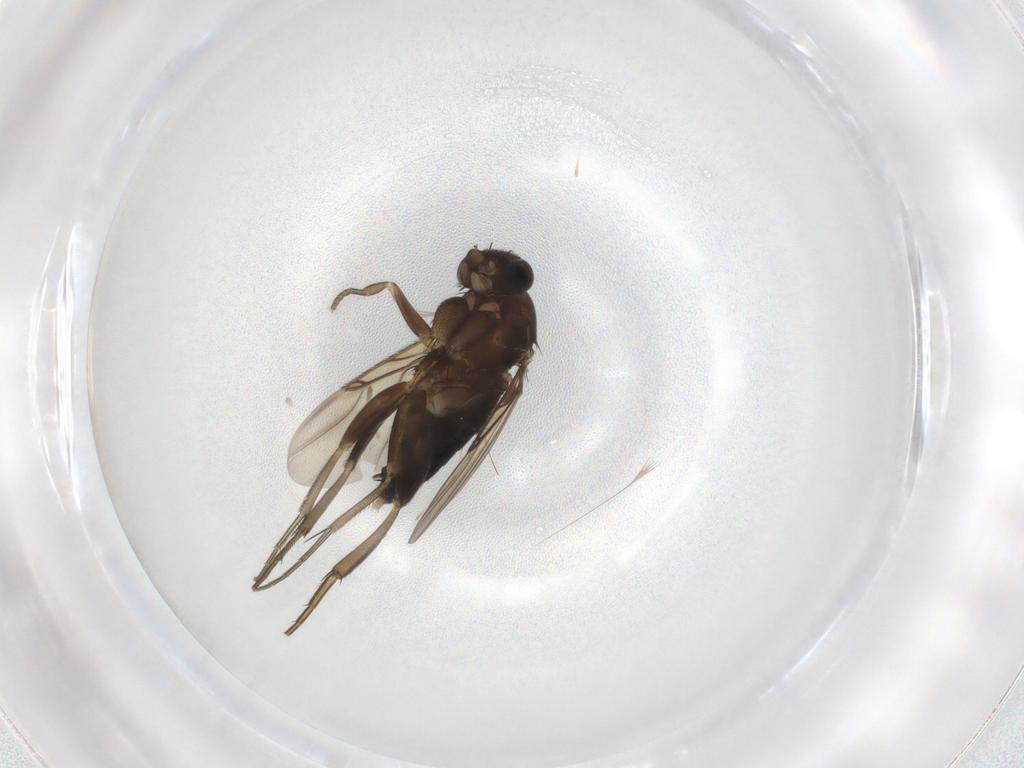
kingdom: Animalia
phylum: Arthropoda
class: Insecta
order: Diptera
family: Phoridae
